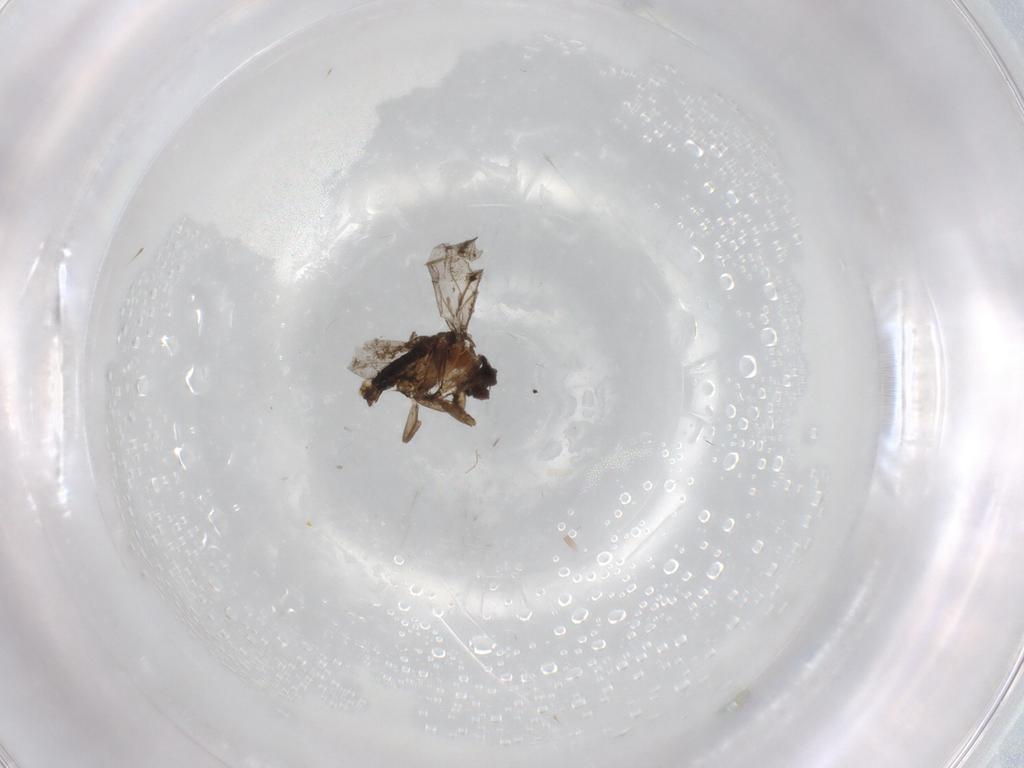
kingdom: Animalia
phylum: Arthropoda
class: Insecta
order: Diptera
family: Phoridae
